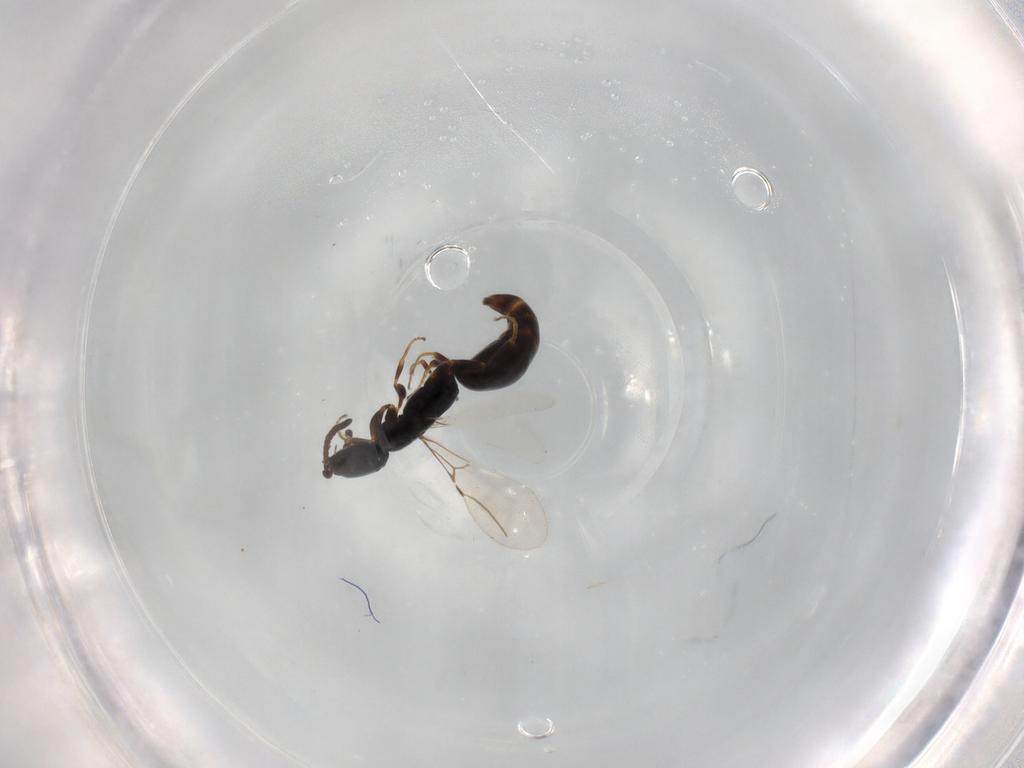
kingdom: Animalia
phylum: Arthropoda
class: Insecta
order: Hymenoptera
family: Bethylidae
